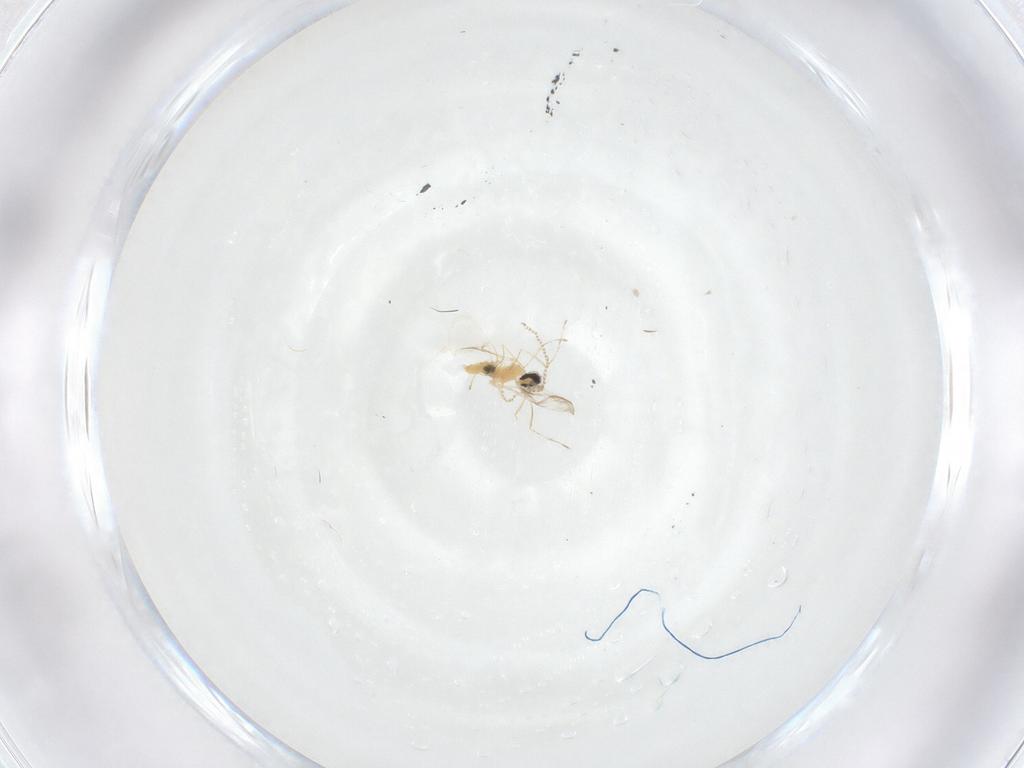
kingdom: Animalia
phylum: Arthropoda
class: Insecta
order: Diptera
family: Cecidomyiidae
